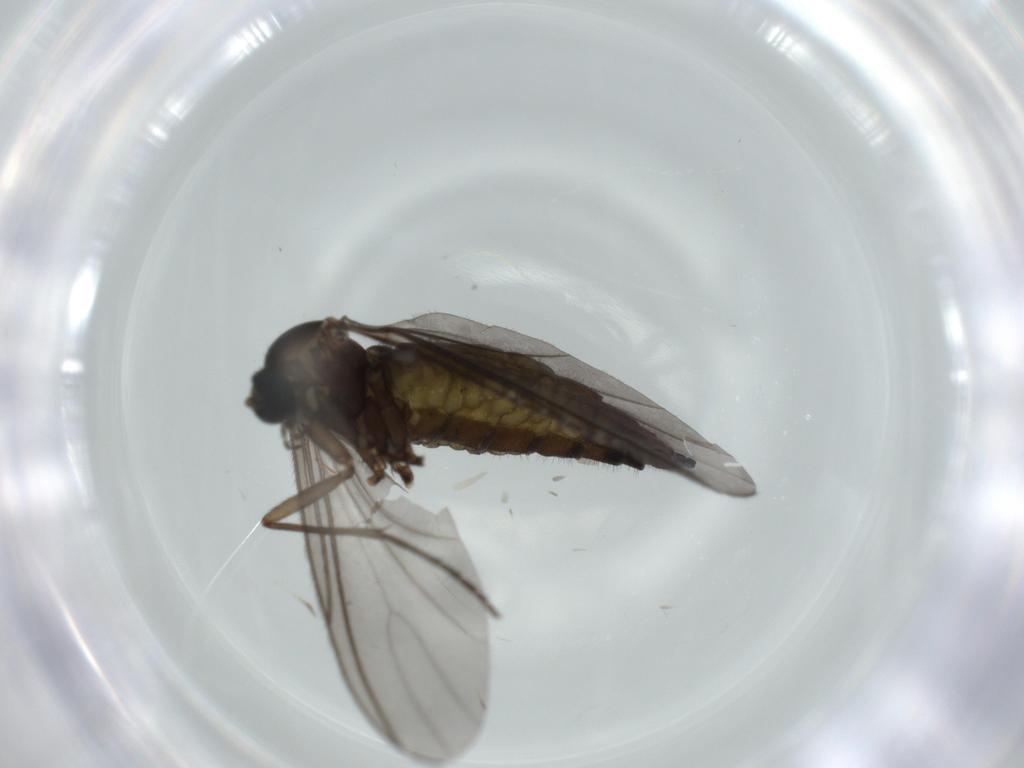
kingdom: Animalia
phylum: Arthropoda
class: Insecta
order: Diptera
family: Sciaridae
